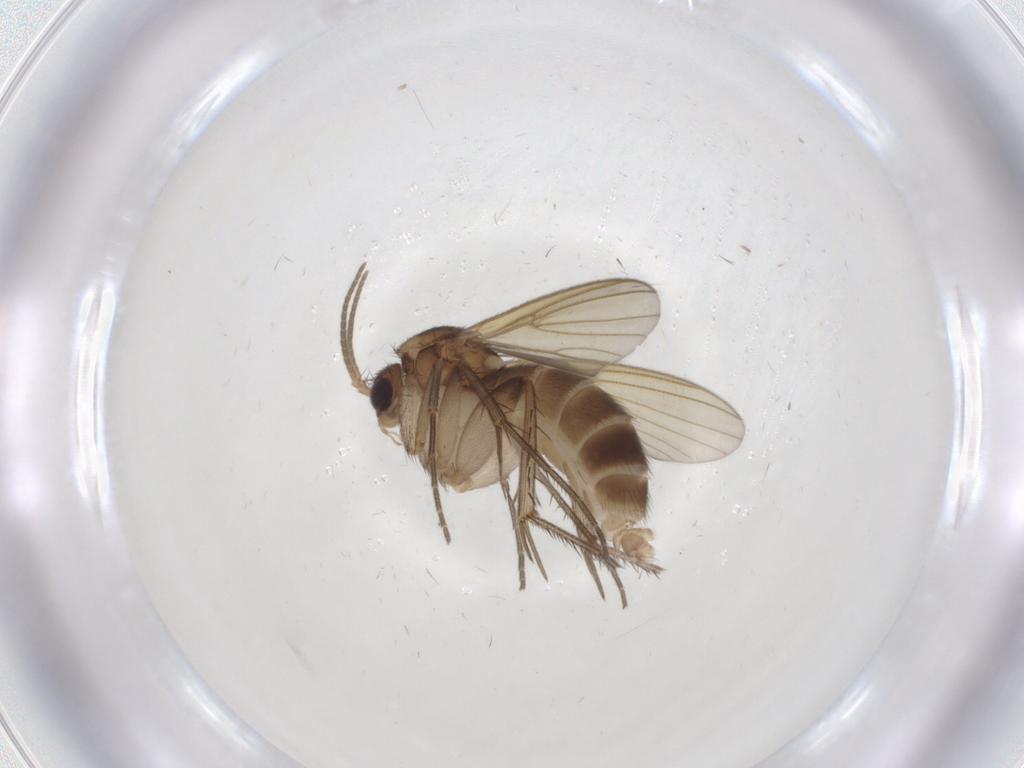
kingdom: Animalia
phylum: Arthropoda
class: Insecta
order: Diptera
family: Mycetophilidae
